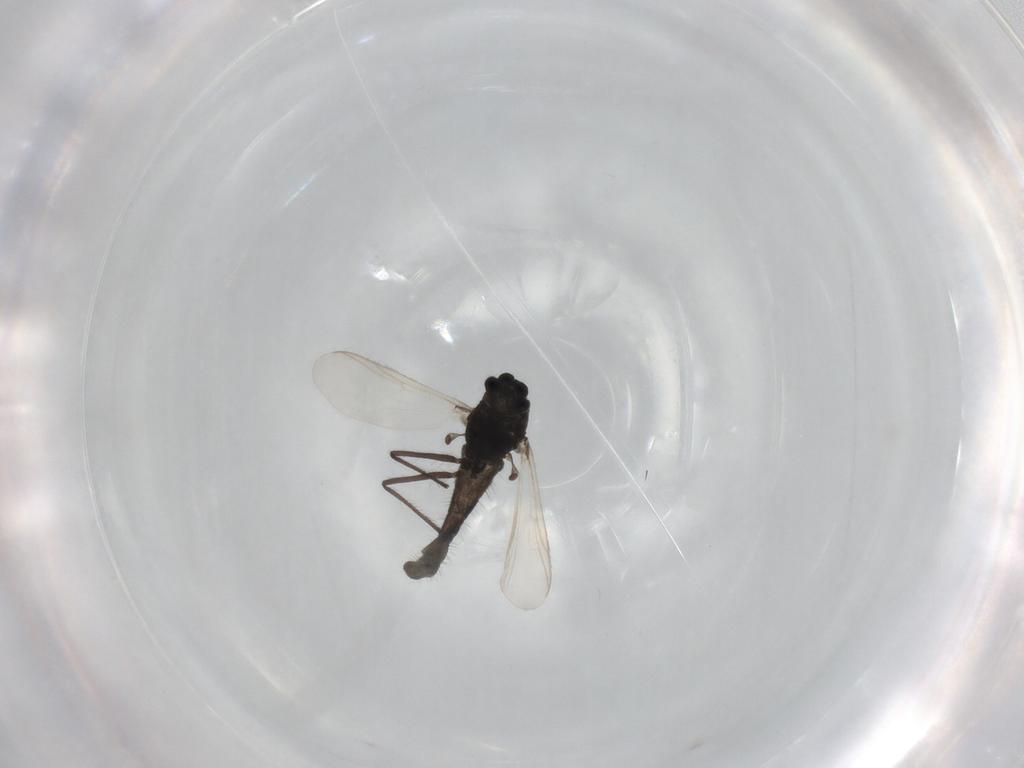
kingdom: Animalia
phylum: Arthropoda
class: Insecta
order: Diptera
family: Chironomidae
